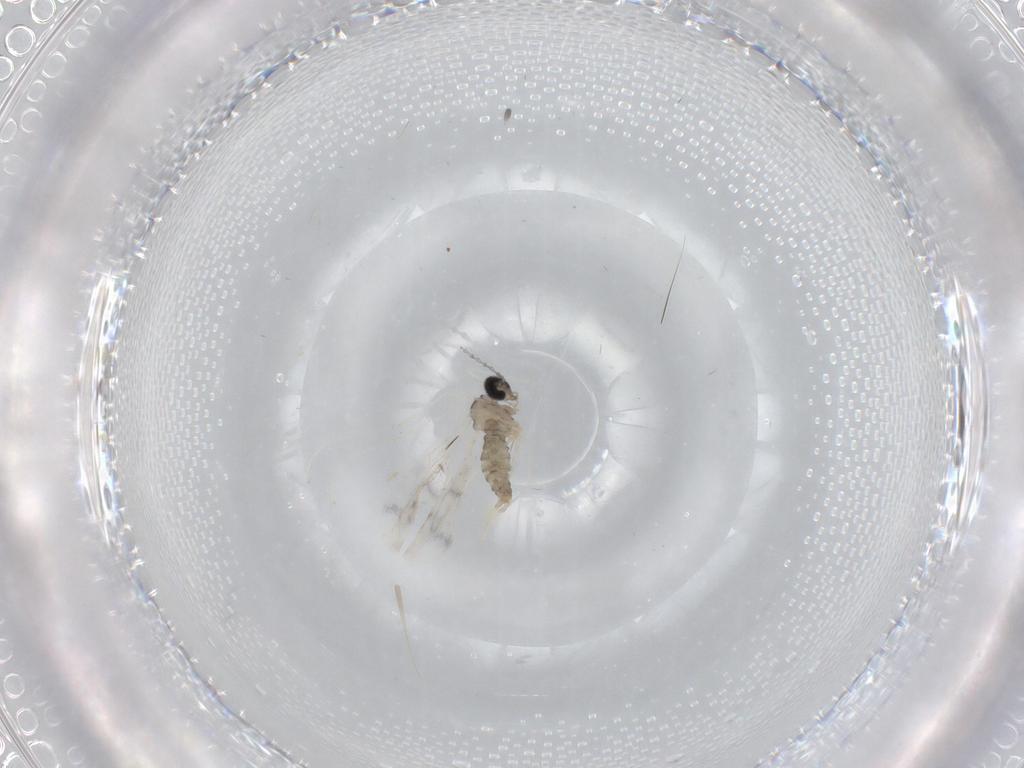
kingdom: Animalia
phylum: Arthropoda
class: Insecta
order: Diptera
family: Cecidomyiidae
